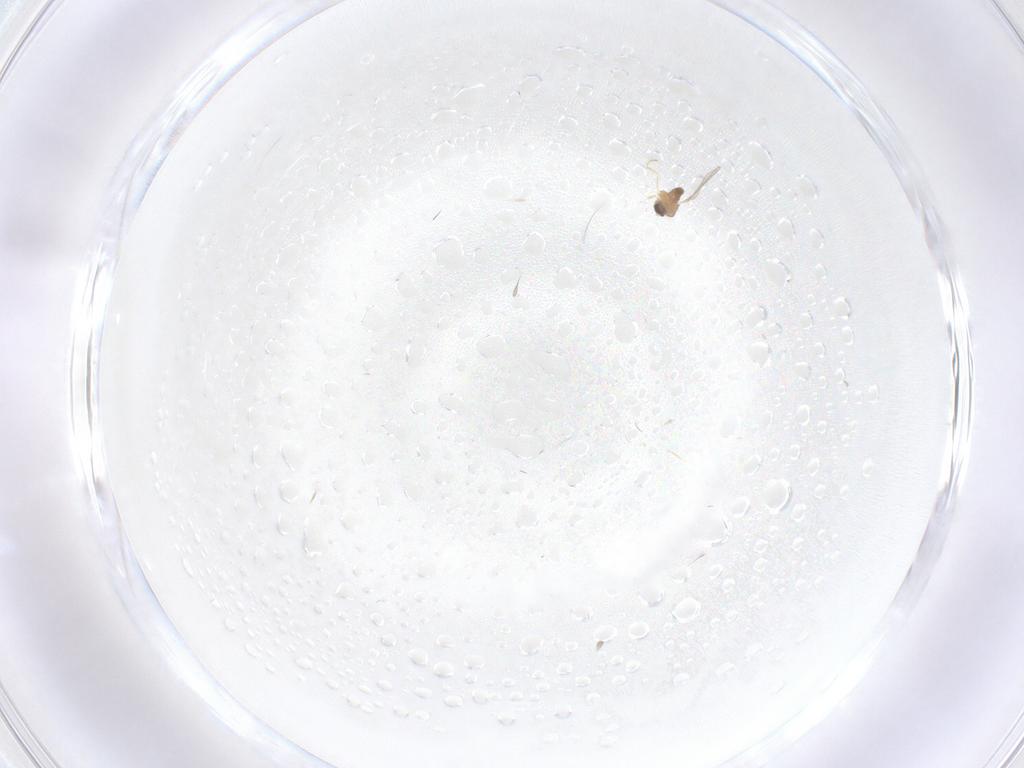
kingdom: Animalia
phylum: Arthropoda
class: Insecta
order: Diptera
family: Cecidomyiidae
